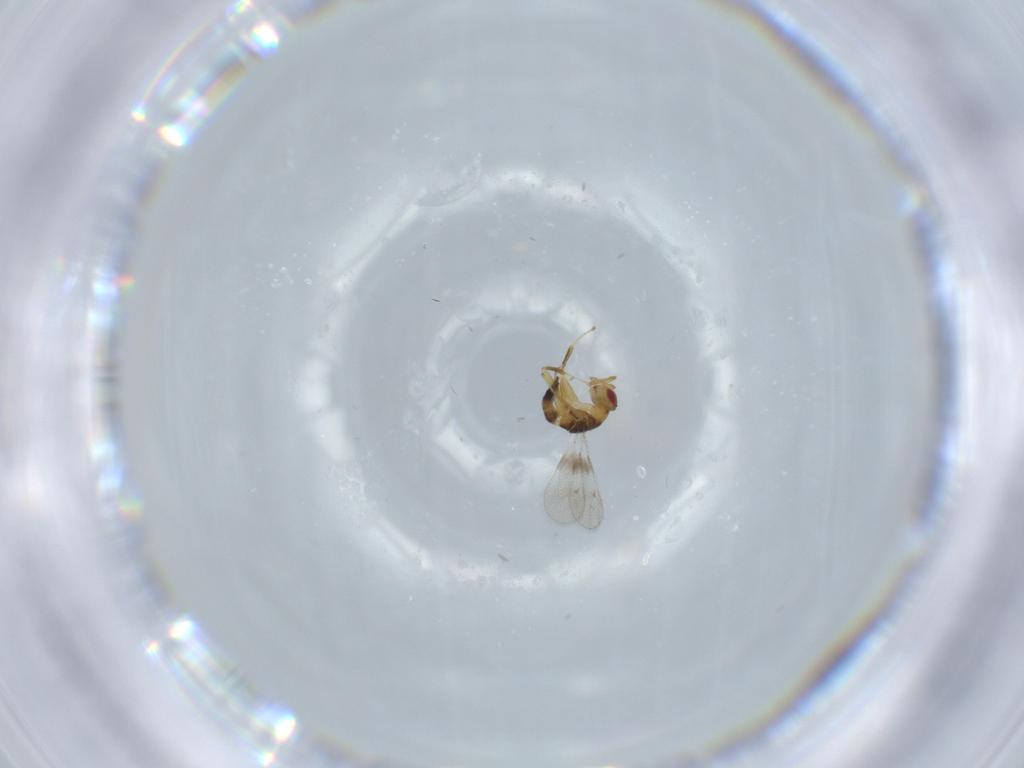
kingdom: Animalia
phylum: Arthropoda
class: Insecta
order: Hymenoptera
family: Torymidae
